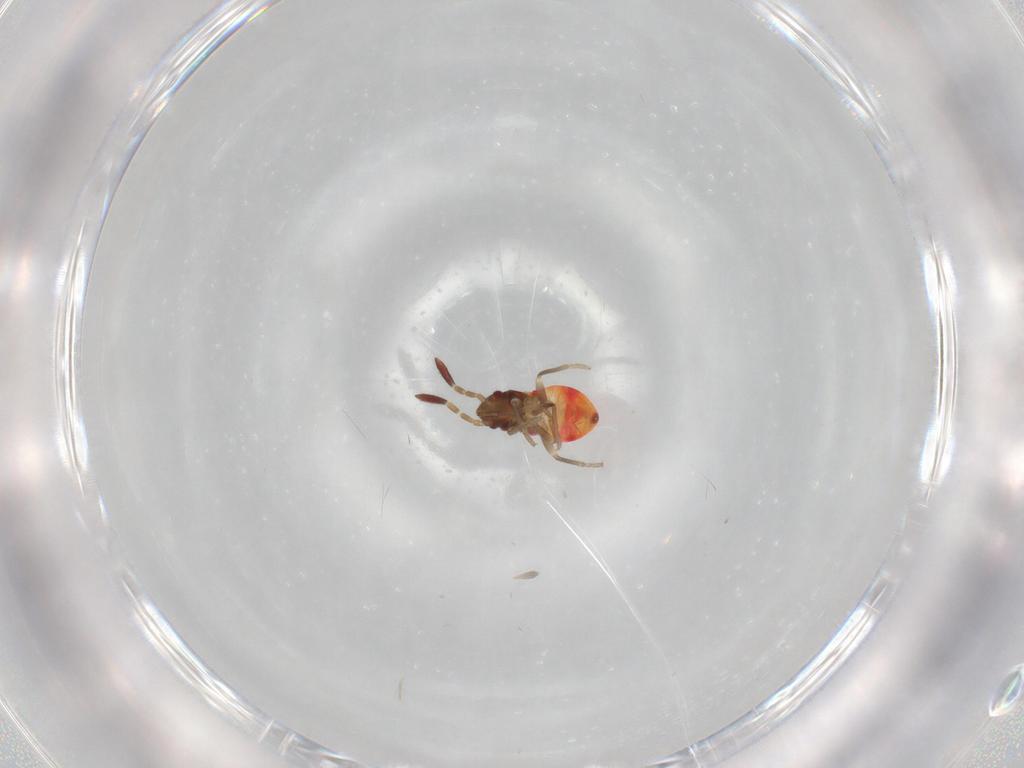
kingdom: Animalia
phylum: Arthropoda
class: Insecta
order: Hemiptera
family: Rhyparochromidae
